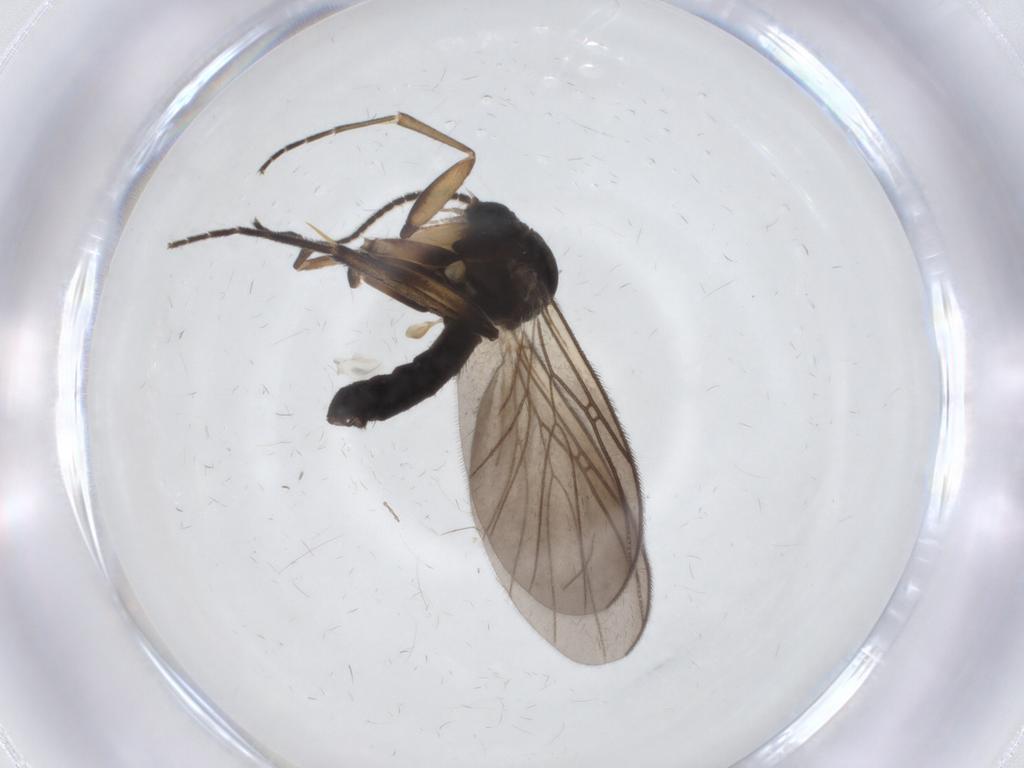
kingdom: Animalia
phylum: Arthropoda
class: Insecta
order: Diptera
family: Mycetophilidae
